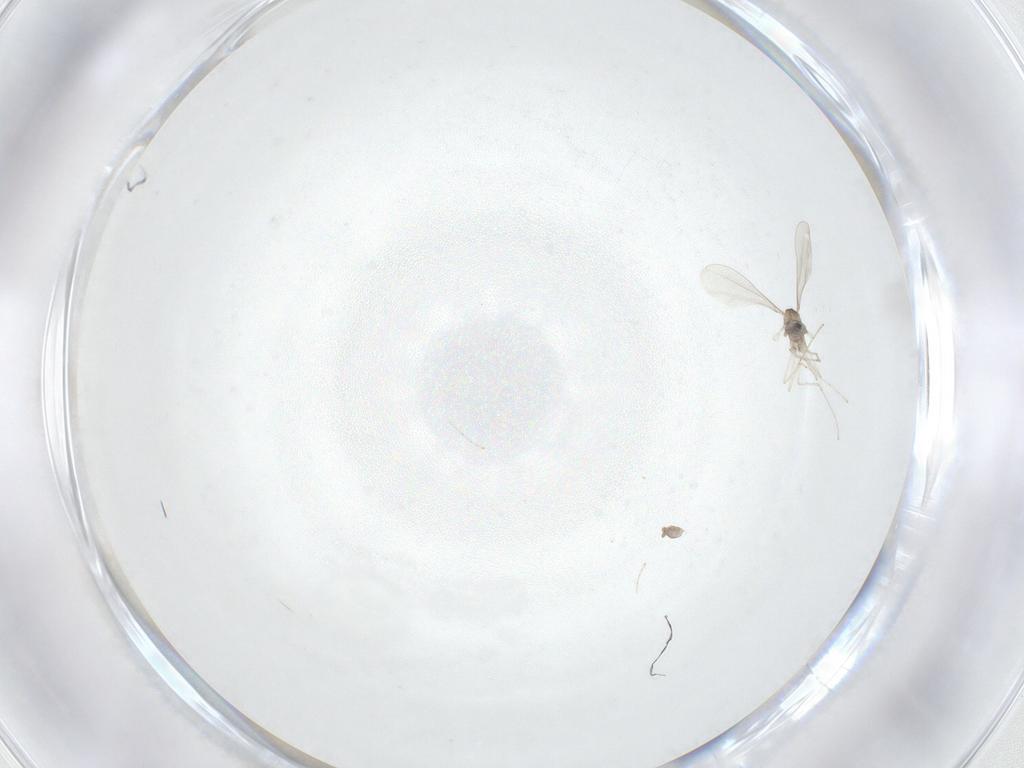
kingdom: Animalia
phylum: Arthropoda
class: Insecta
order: Diptera
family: Cecidomyiidae
